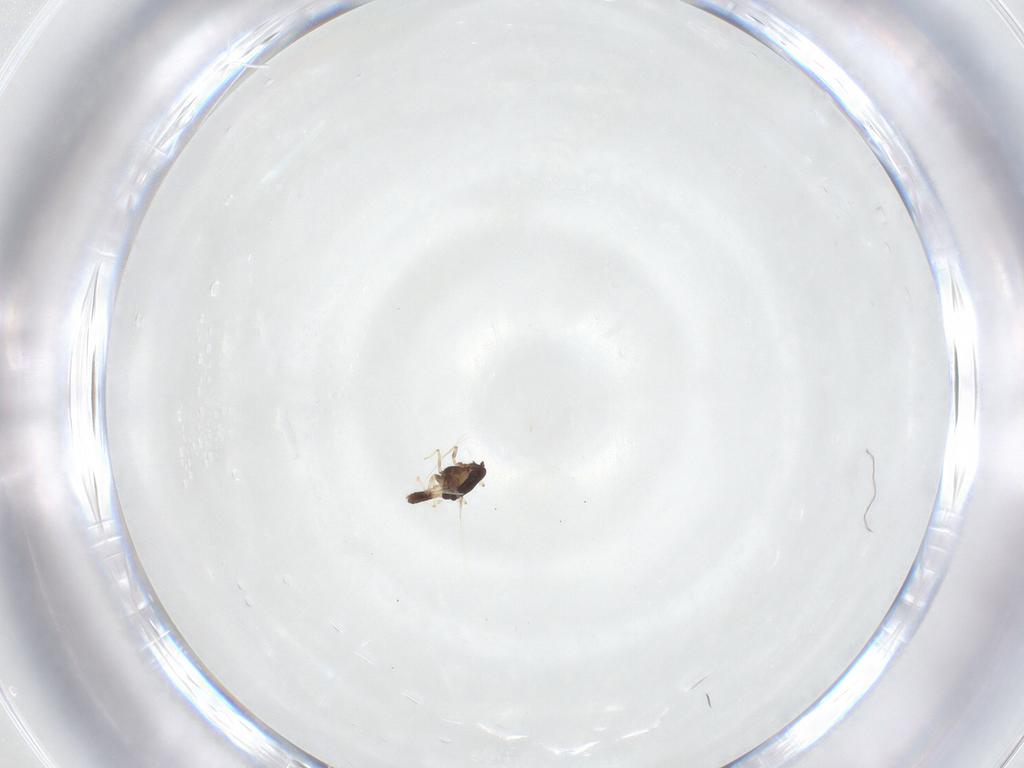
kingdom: Animalia
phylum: Arthropoda
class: Insecta
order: Diptera
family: Chironomidae
